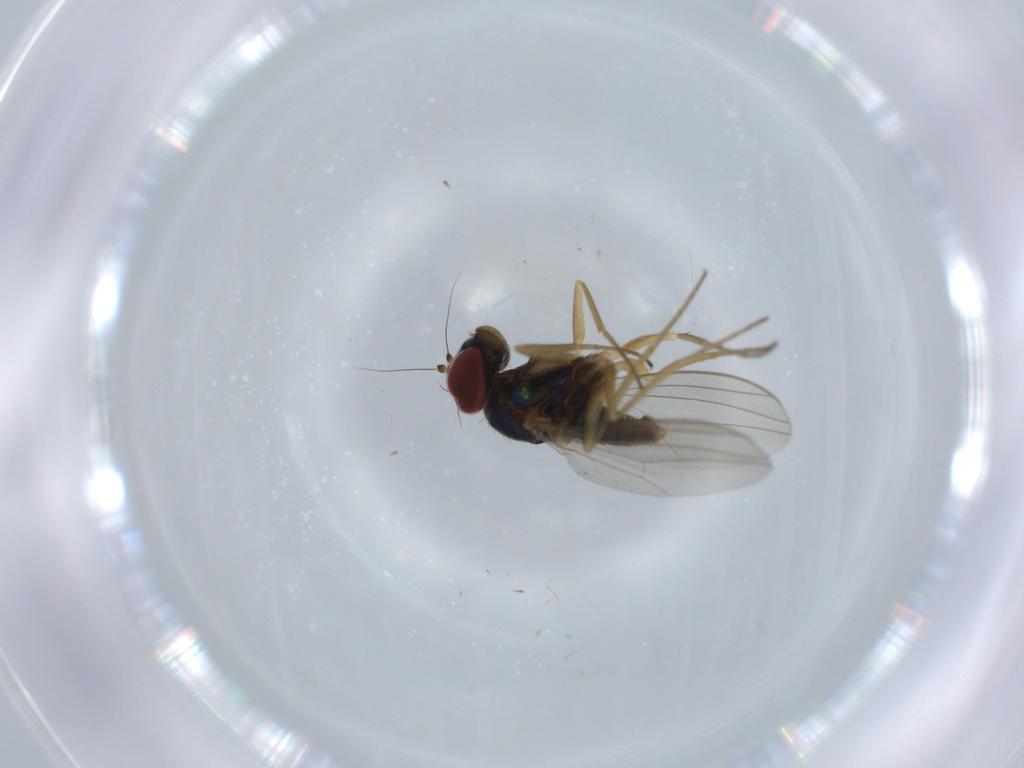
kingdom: Animalia
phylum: Arthropoda
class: Insecta
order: Diptera
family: Dolichopodidae
